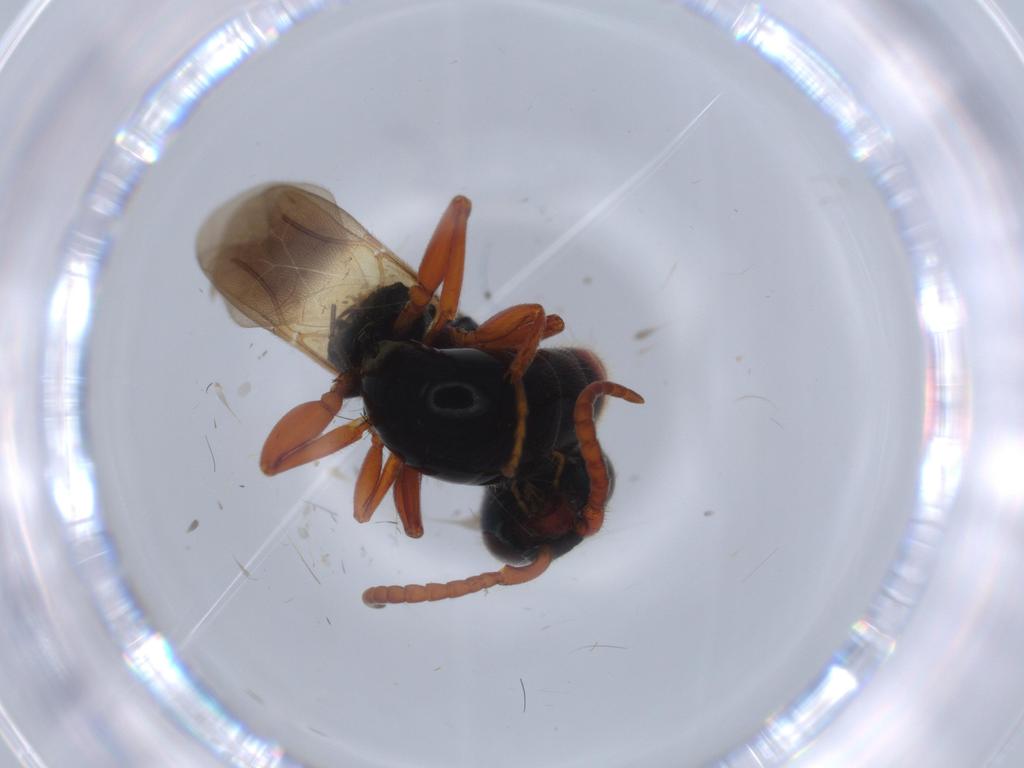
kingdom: Animalia
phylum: Arthropoda
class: Insecta
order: Hymenoptera
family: Bethylidae
